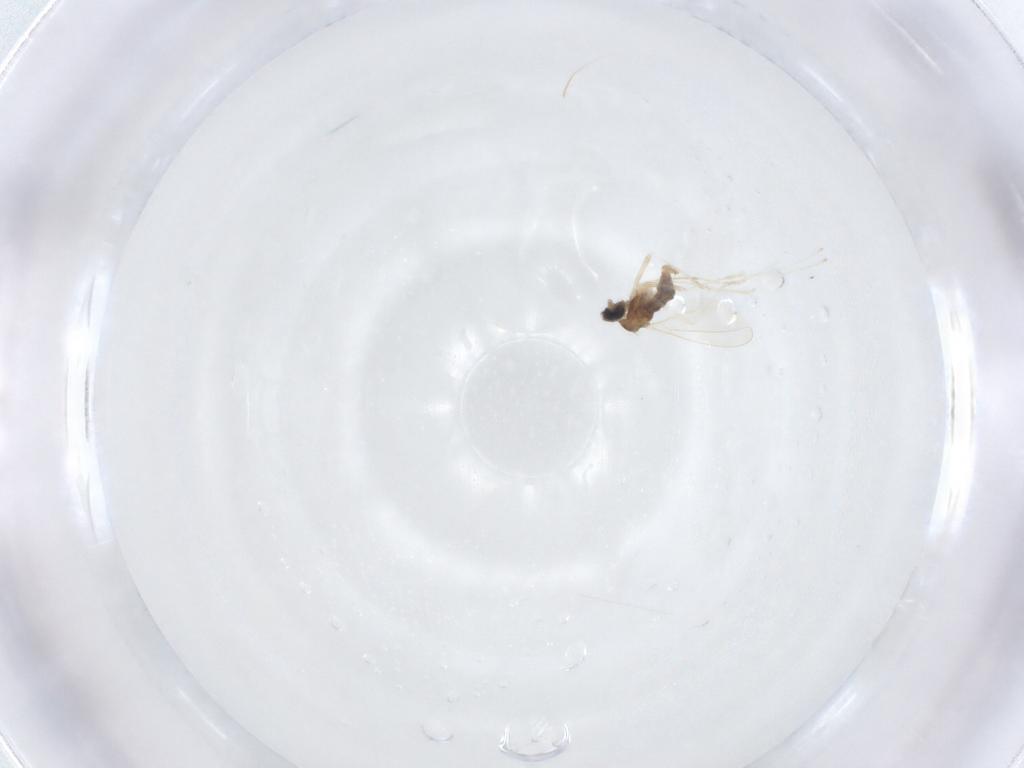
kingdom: Animalia
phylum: Arthropoda
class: Insecta
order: Diptera
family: Cecidomyiidae
